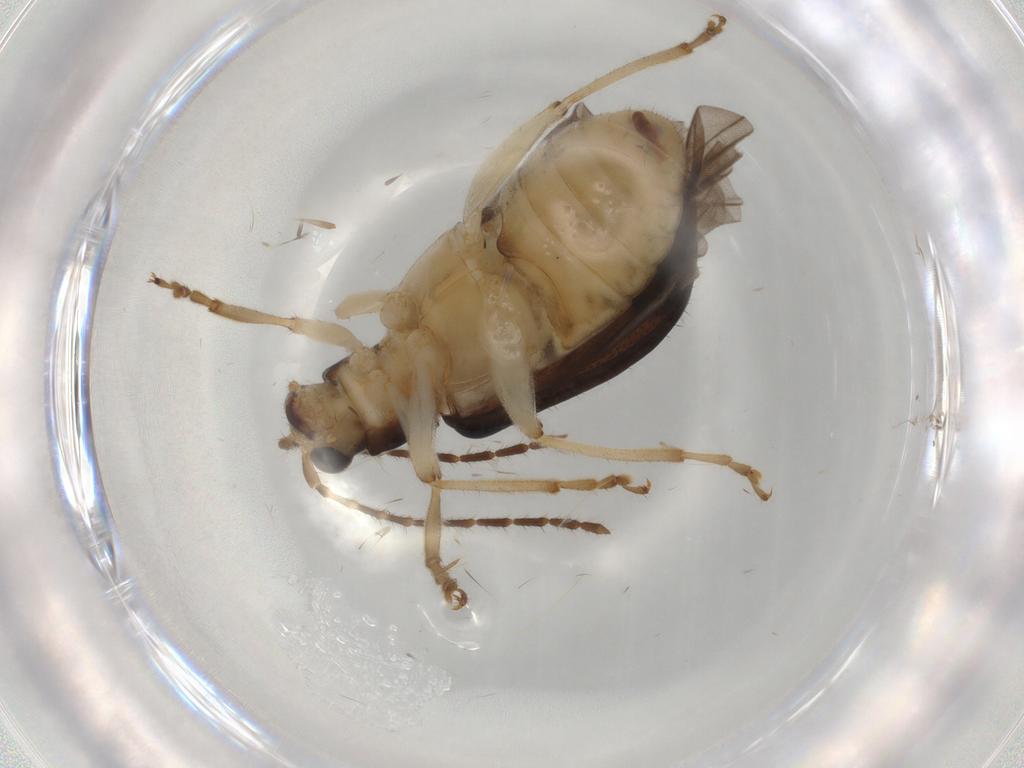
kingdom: Animalia
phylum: Arthropoda
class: Insecta
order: Coleoptera
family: Chrysomelidae
